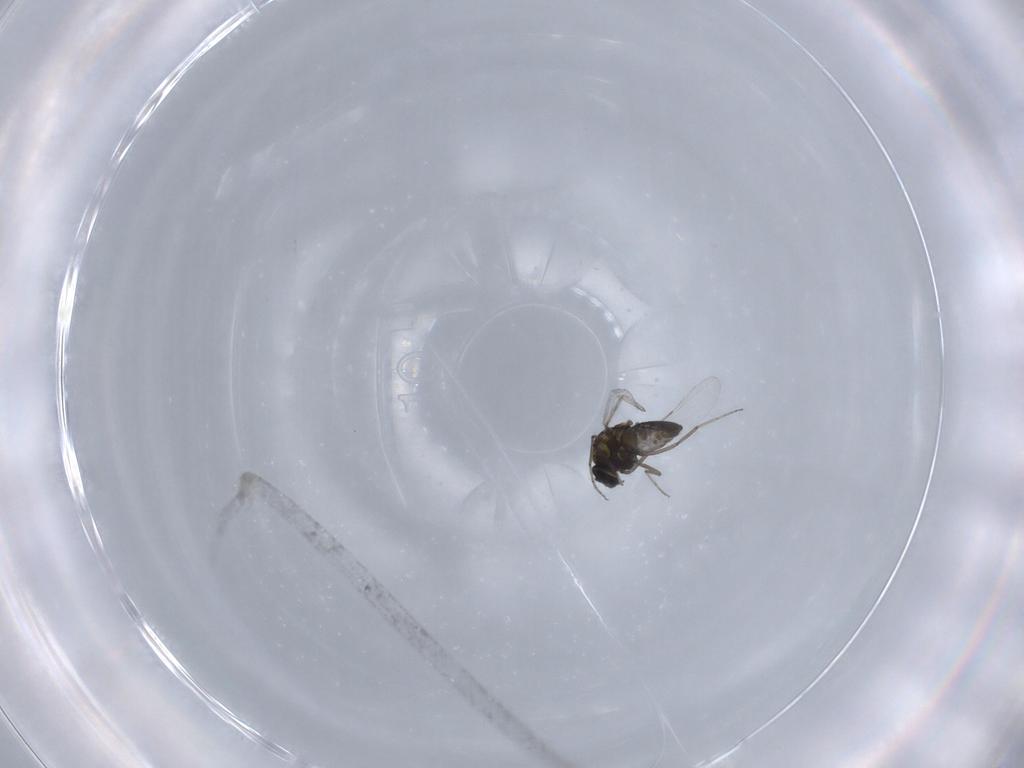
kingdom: Animalia
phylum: Arthropoda
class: Insecta
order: Diptera
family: Ceratopogonidae
